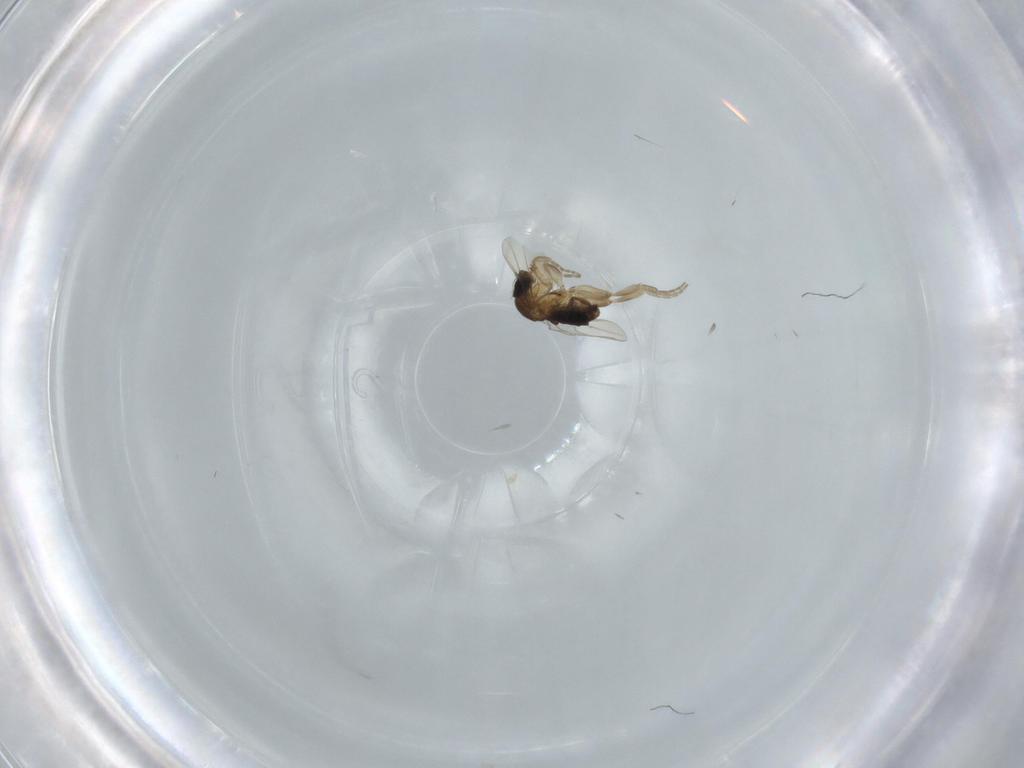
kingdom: Animalia
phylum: Arthropoda
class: Insecta
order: Diptera
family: Phoridae
